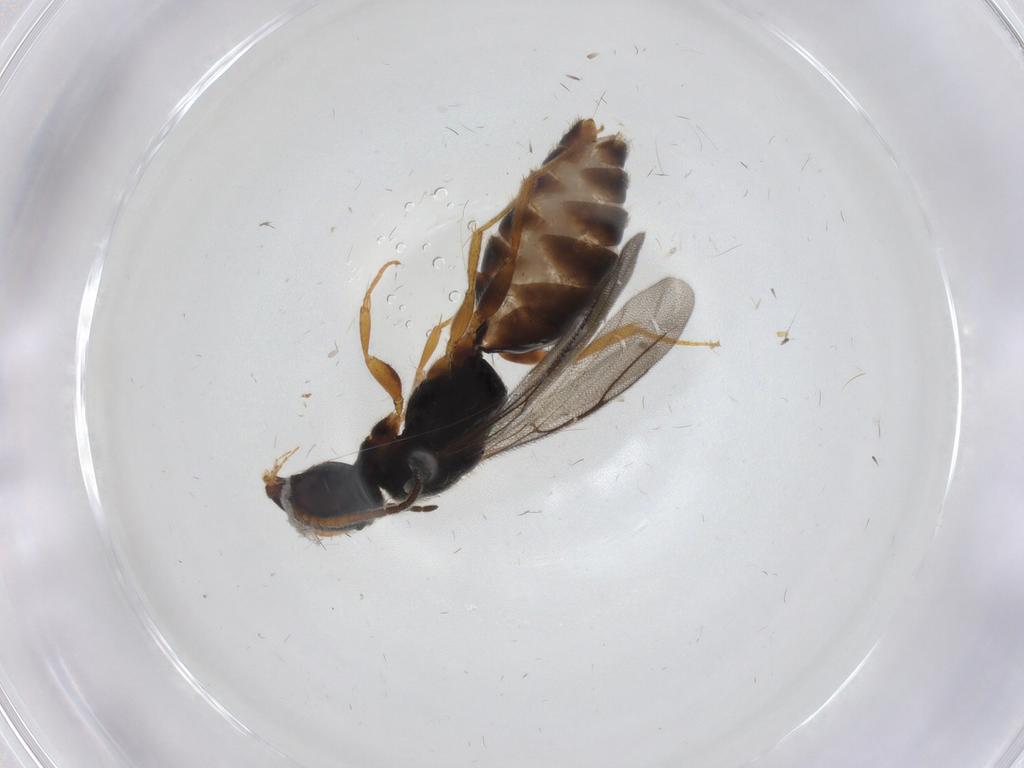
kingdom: Animalia
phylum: Arthropoda
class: Insecta
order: Hymenoptera
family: Bethylidae
